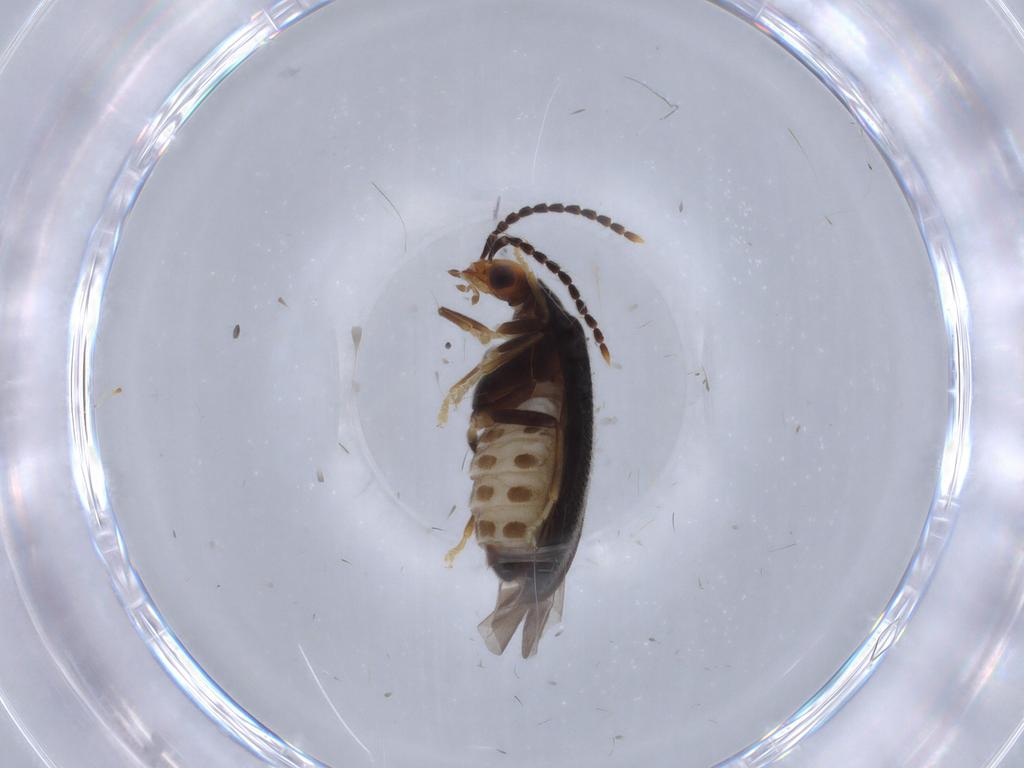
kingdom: Animalia
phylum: Arthropoda
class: Insecta
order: Coleoptera
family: Cantharidae
